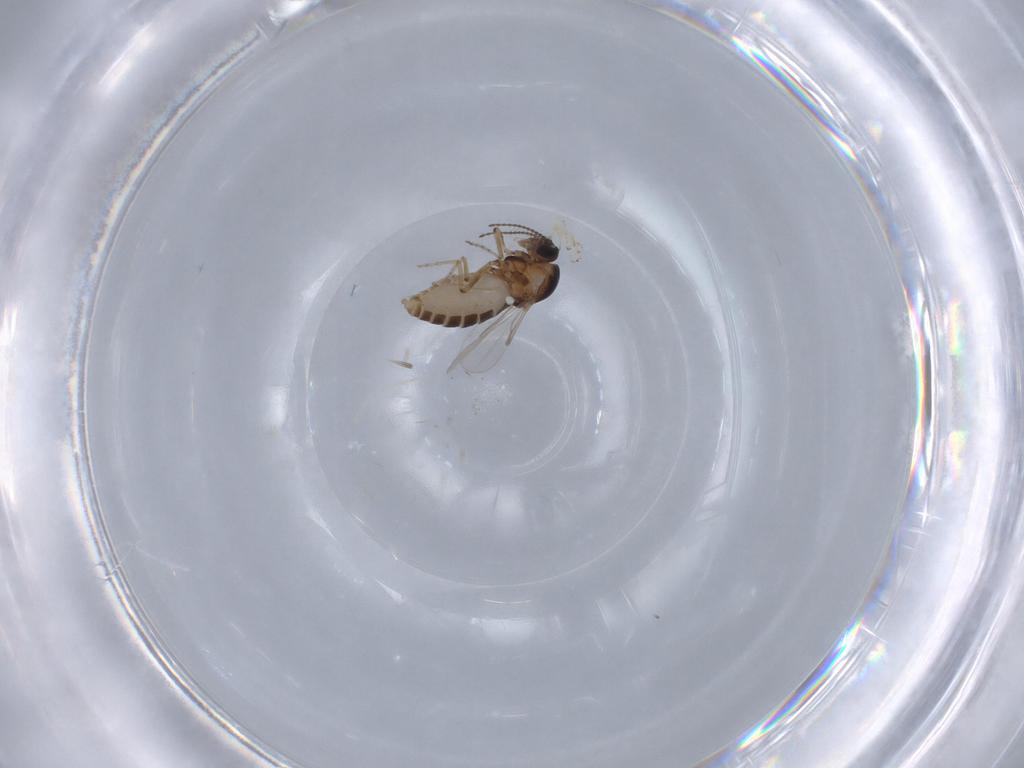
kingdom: Animalia
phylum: Arthropoda
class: Insecta
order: Diptera
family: Ceratopogonidae
